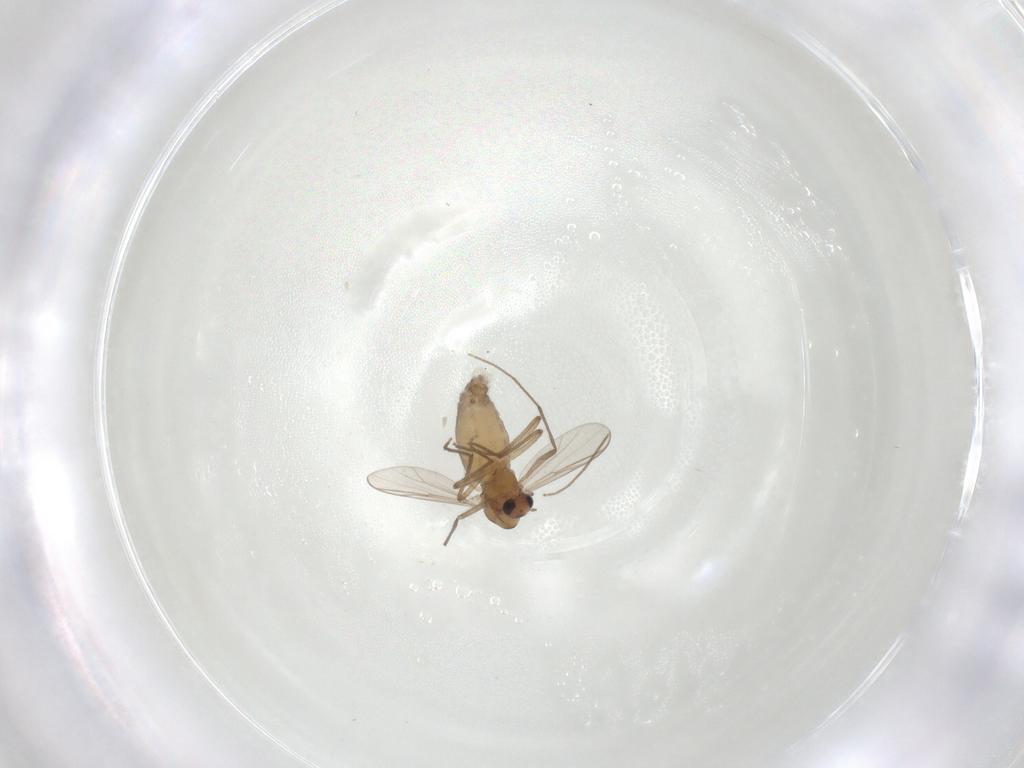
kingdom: Animalia
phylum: Arthropoda
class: Insecta
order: Diptera
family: Chironomidae
